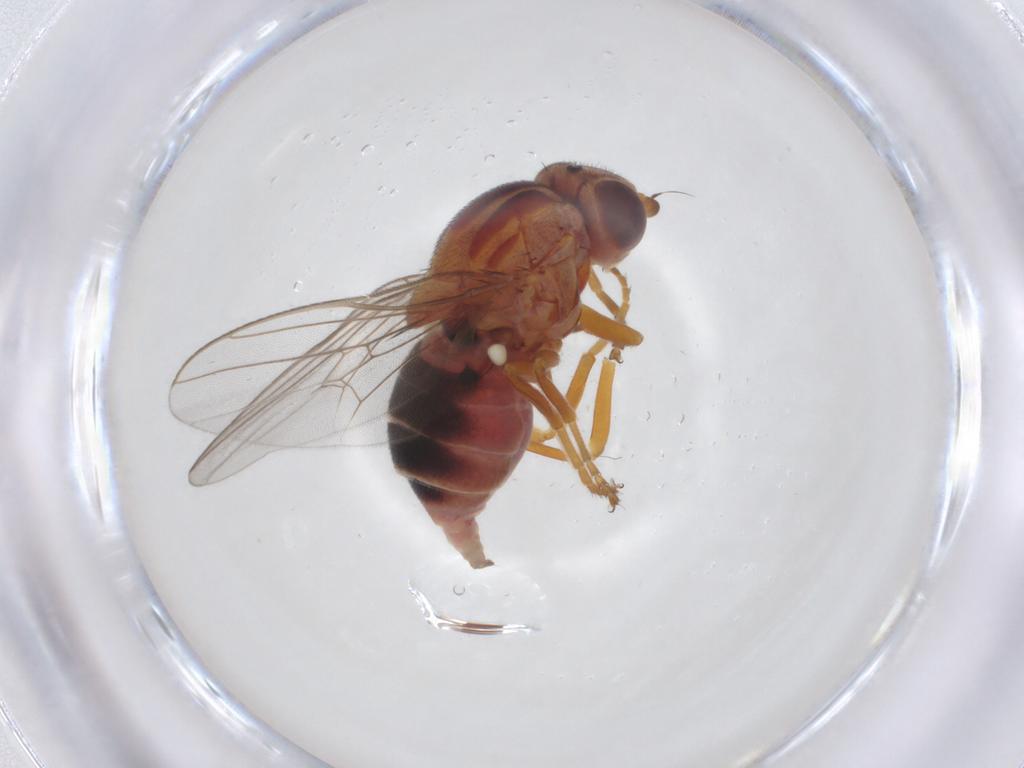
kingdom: Animalia
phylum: Arthropoda
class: Insecta
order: Diptera
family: Chloropidae
